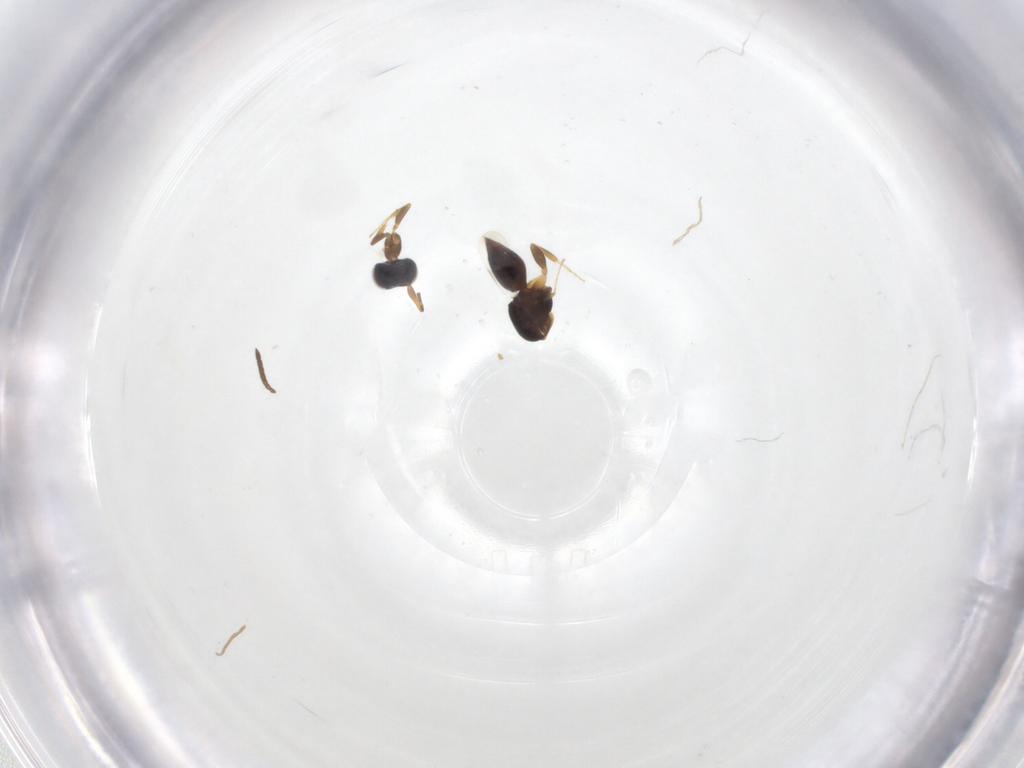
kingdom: Animalia
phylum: Arthropoda
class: Insecta
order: Hymenoptera
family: Ceraphronidae
